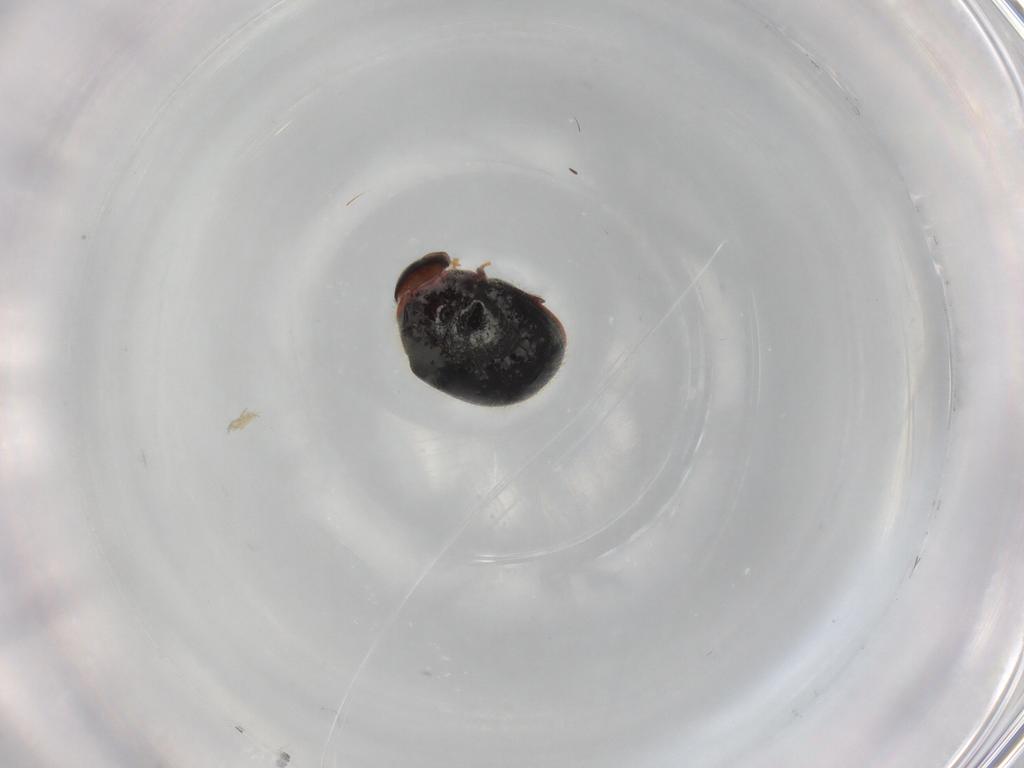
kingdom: Animalia
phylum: Arthropoda
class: Insecta
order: Coleoptera
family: Ptinidae
